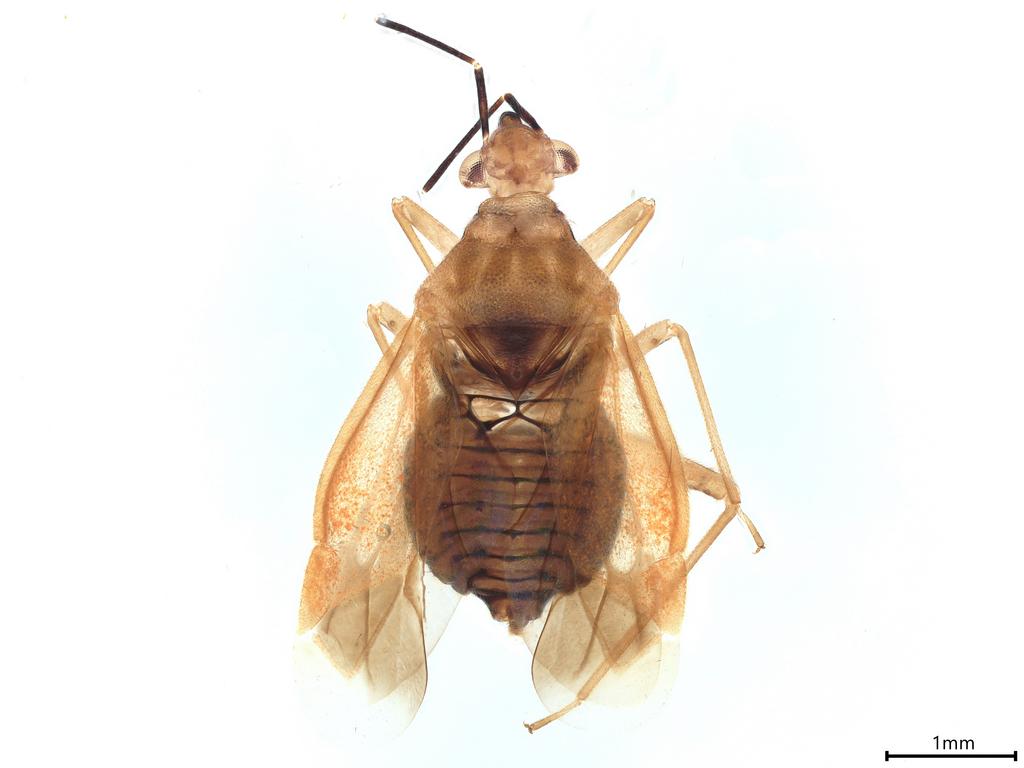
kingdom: Animalia
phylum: Arthropoda
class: Insecta
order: Hemiptera
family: Miridae
